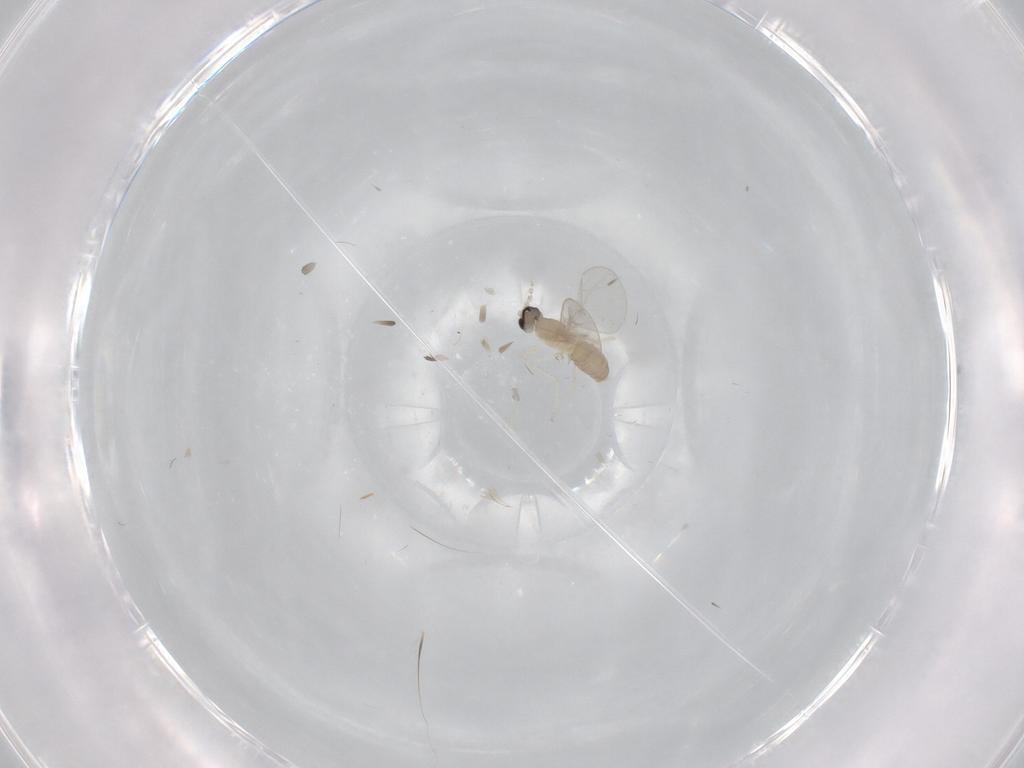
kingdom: Animalia
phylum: Arthropoda
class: Insecta
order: Diptera
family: Cecidomyiidae
